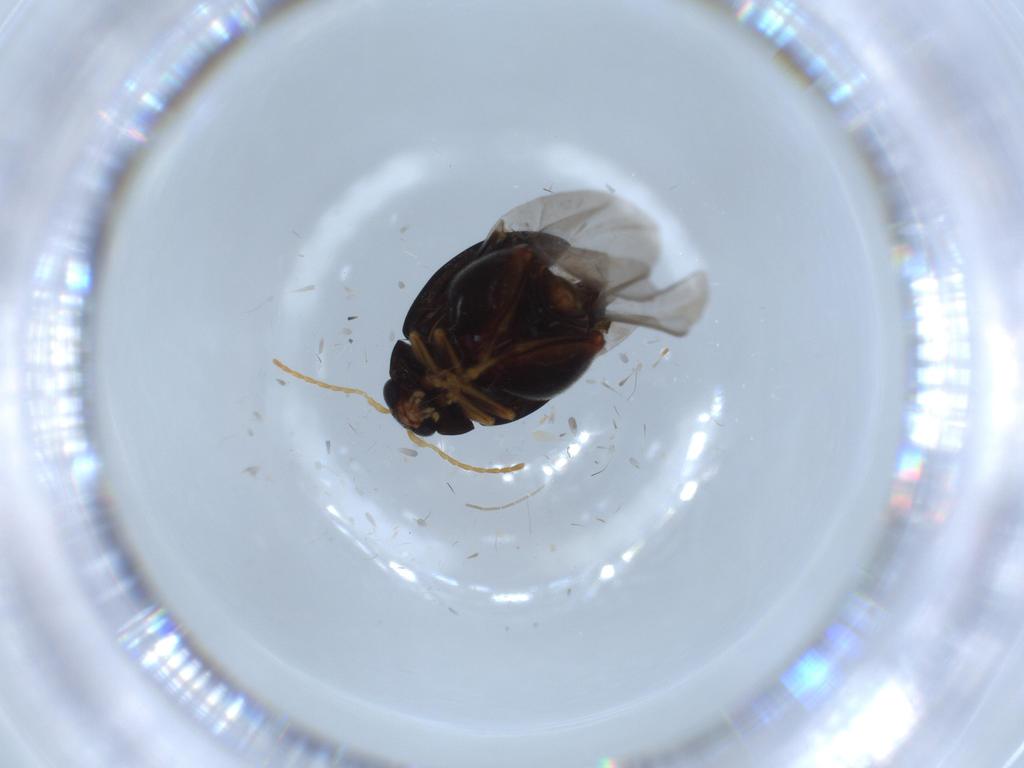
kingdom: Animalia
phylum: Arthropoda
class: Insecta
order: Coleoptera
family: Chrysomelidae
